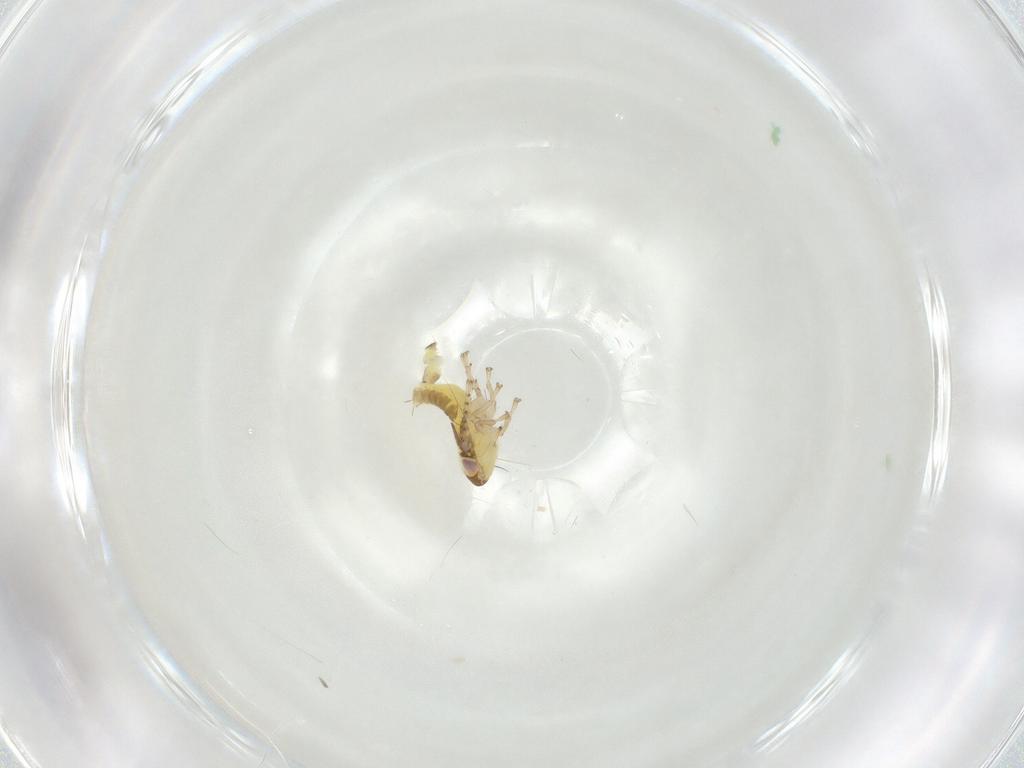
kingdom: Animalia
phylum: Arthropoda
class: Insecta
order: Hemiptera
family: Cicadellidae
